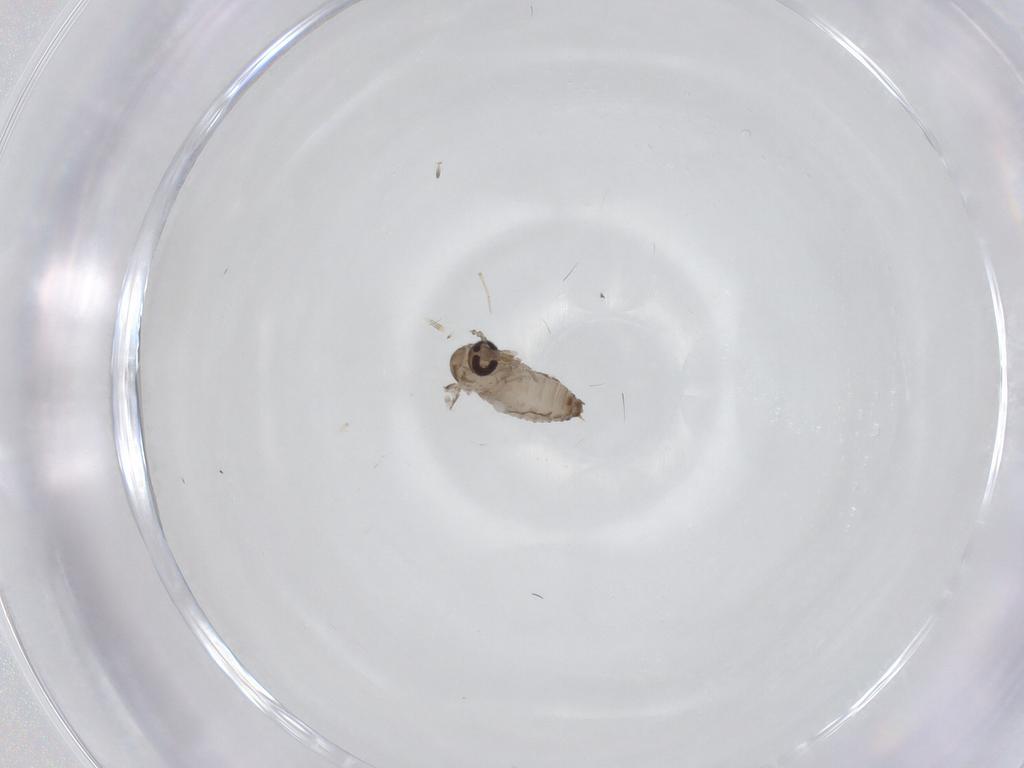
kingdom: Animalia
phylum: Arthropoda
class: Insecta
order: Diptera
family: Psychodidae
